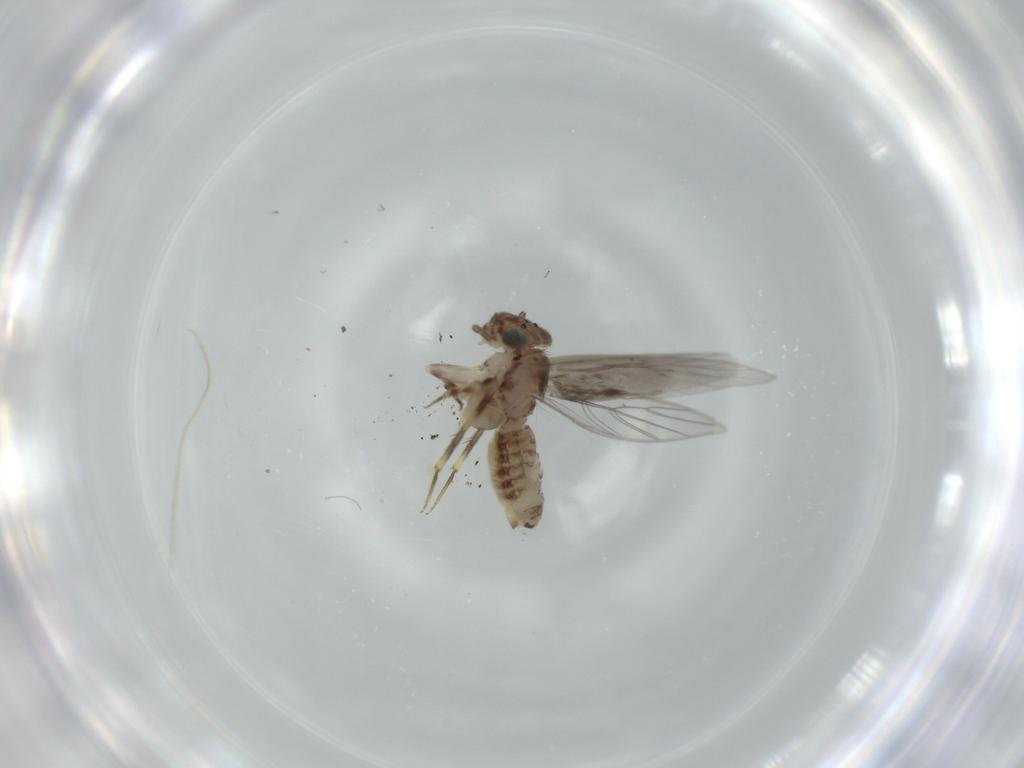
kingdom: Animalia
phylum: Arthropoda
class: Insecta
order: Psocodea
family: Lepidopsocidae
